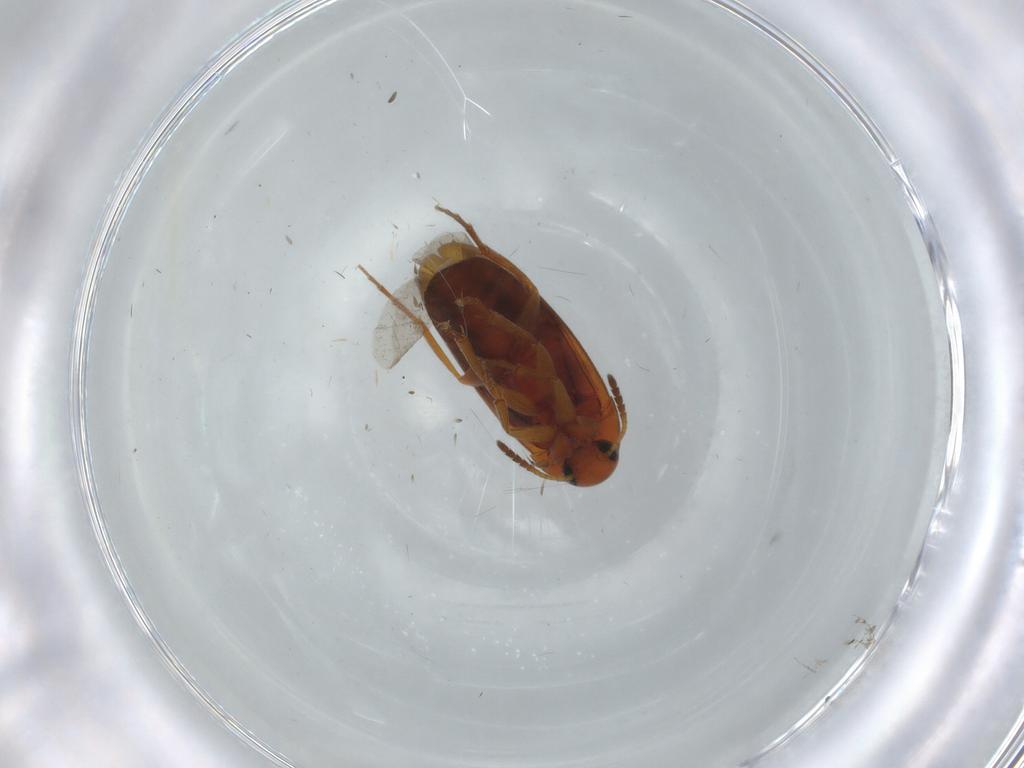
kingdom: Animalia
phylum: Arthropoda
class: Insecta
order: Coleoptera
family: Scraptiidae
